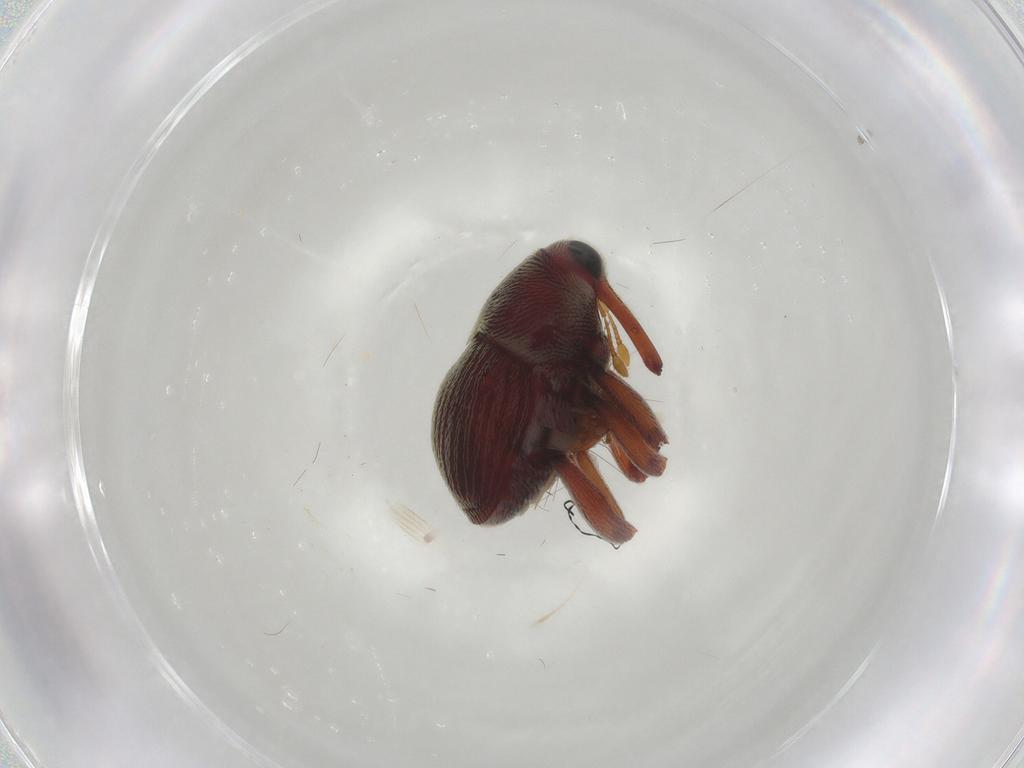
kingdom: Animalia
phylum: Arthropoda
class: Insecta
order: Coleoptera
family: Curculionidae
